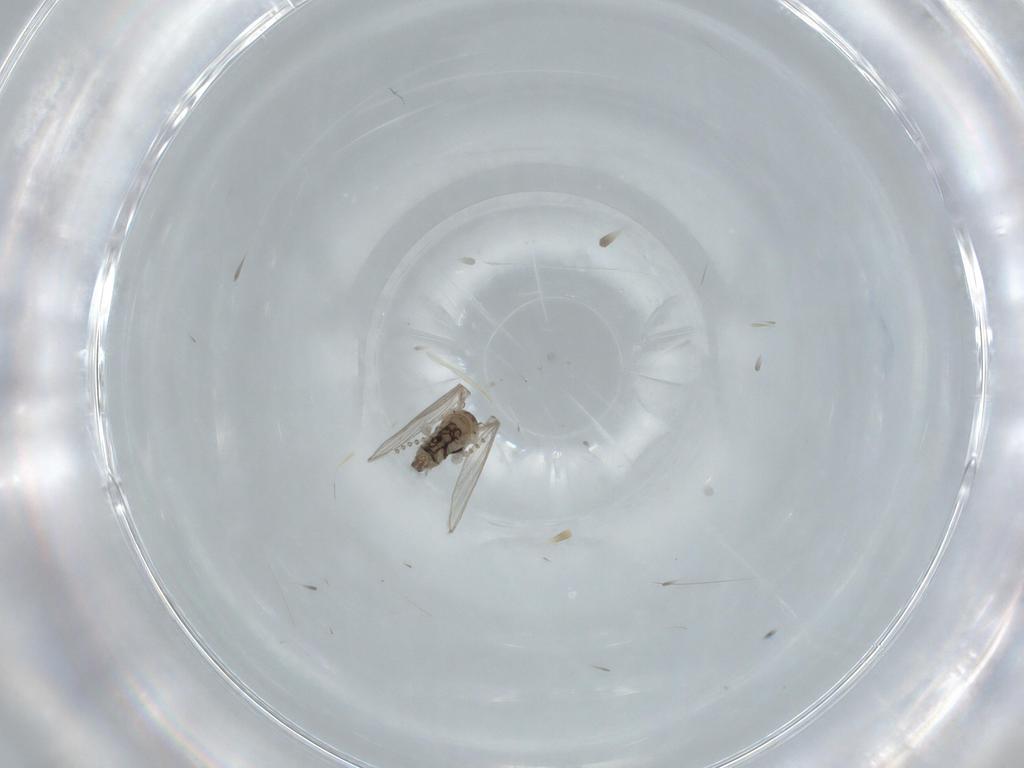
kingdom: Animalia
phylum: Arthropoda
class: Insecta
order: Diptera
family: Psychodidae
